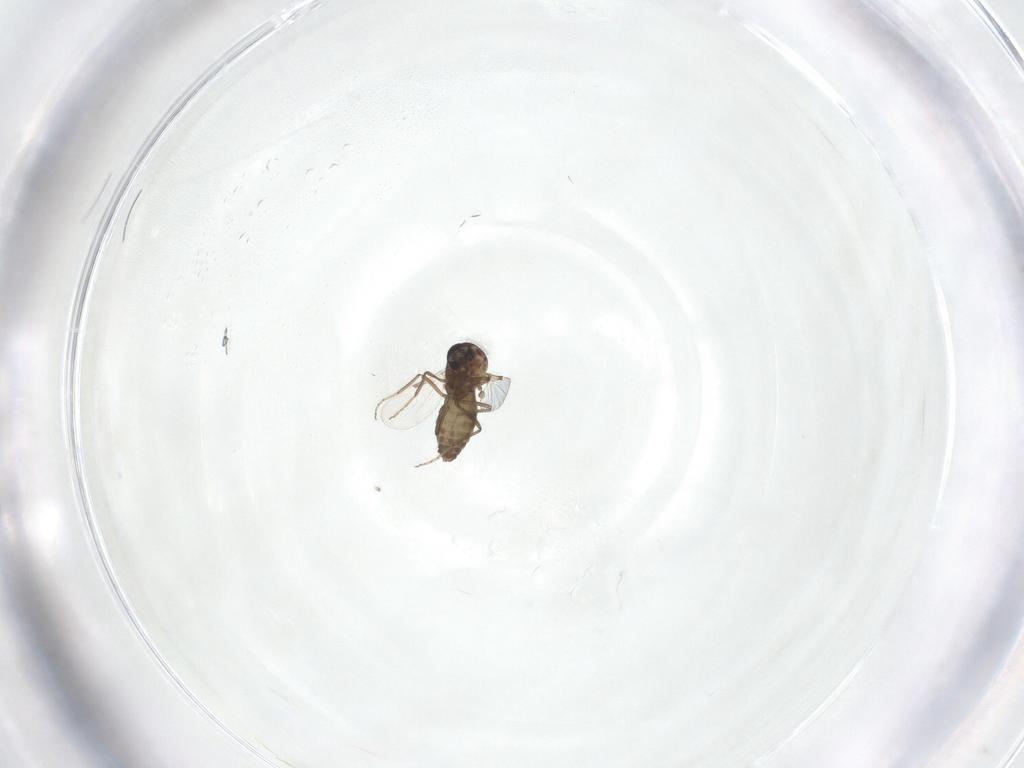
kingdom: Animalia
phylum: Arthropoda
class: Insecta
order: Diptera
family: Ceratopogonidae
